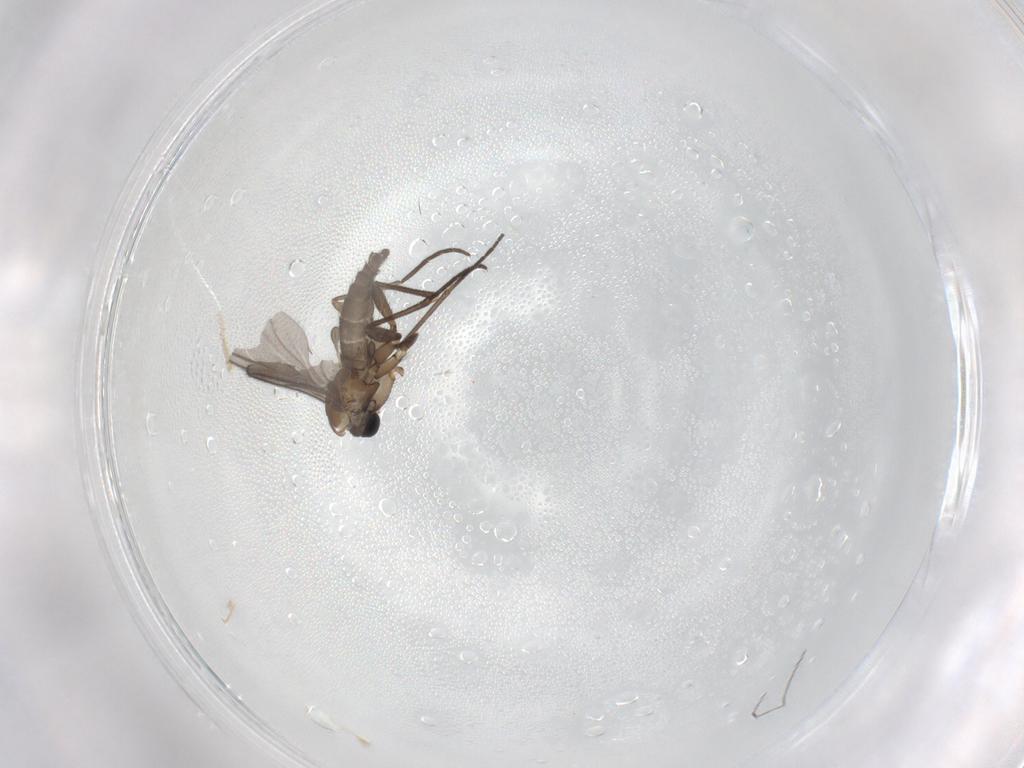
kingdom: Animalia
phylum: Arthropoda
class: Insecta
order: Diptera
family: Sciaridae
